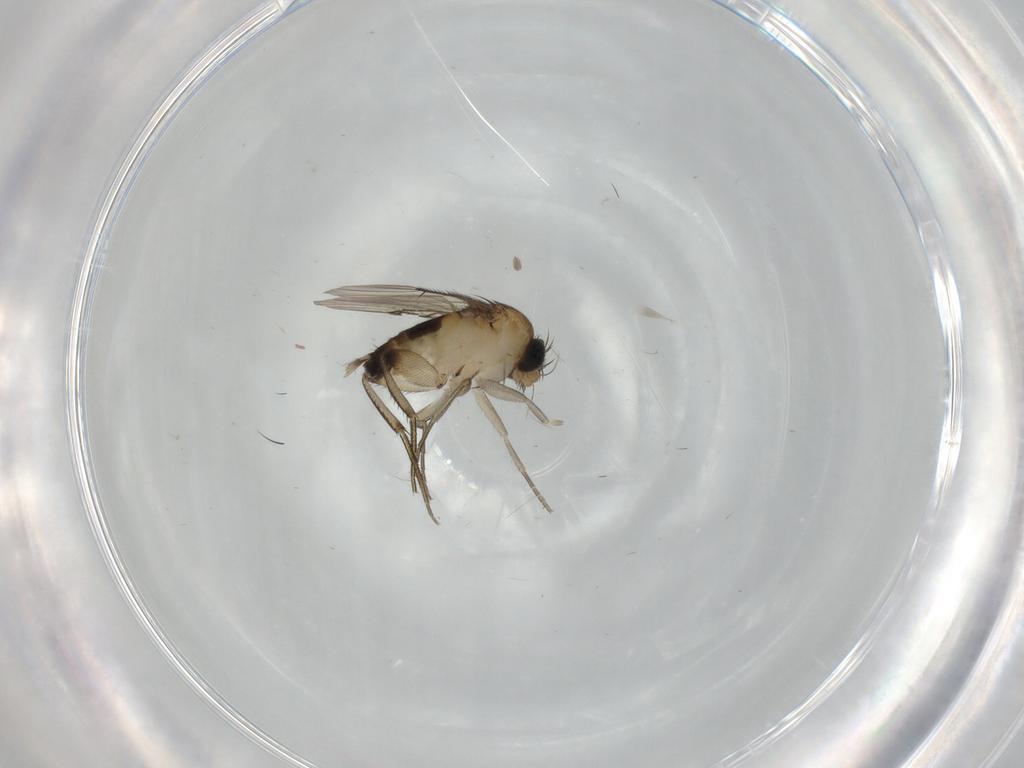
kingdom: Animalia
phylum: Arthropoda
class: Insecta
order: Diptera
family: Phoridae
